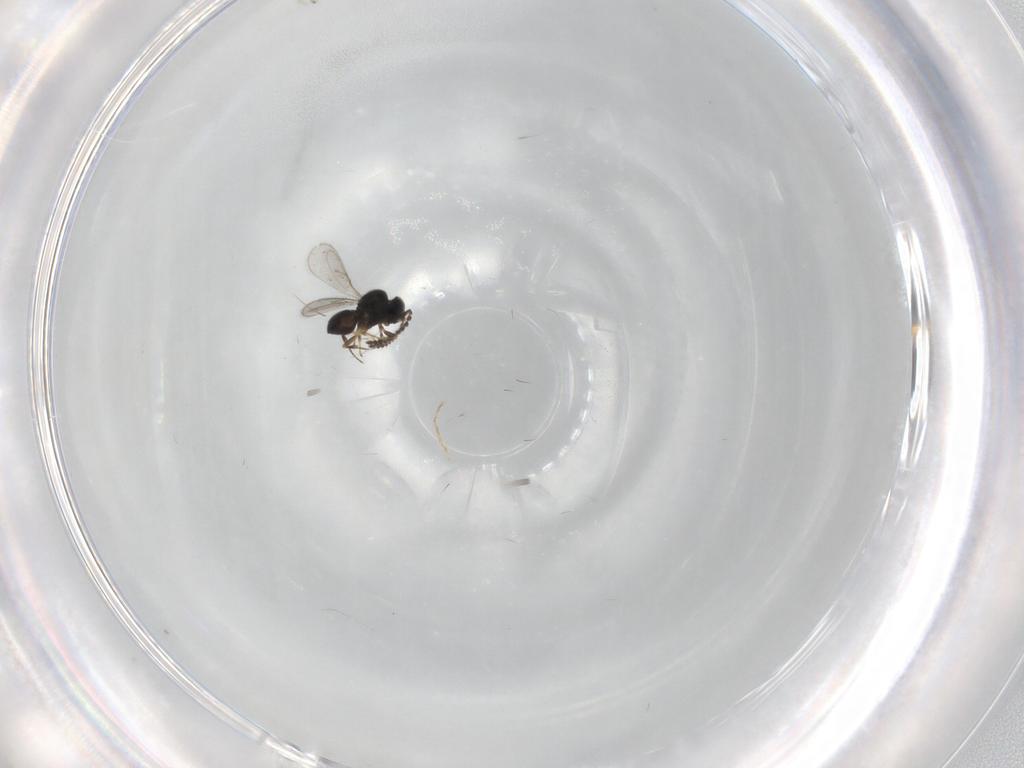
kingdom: Animalia
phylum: Arthropoda
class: Insecta
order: Hymenoptera
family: Scelionidae
